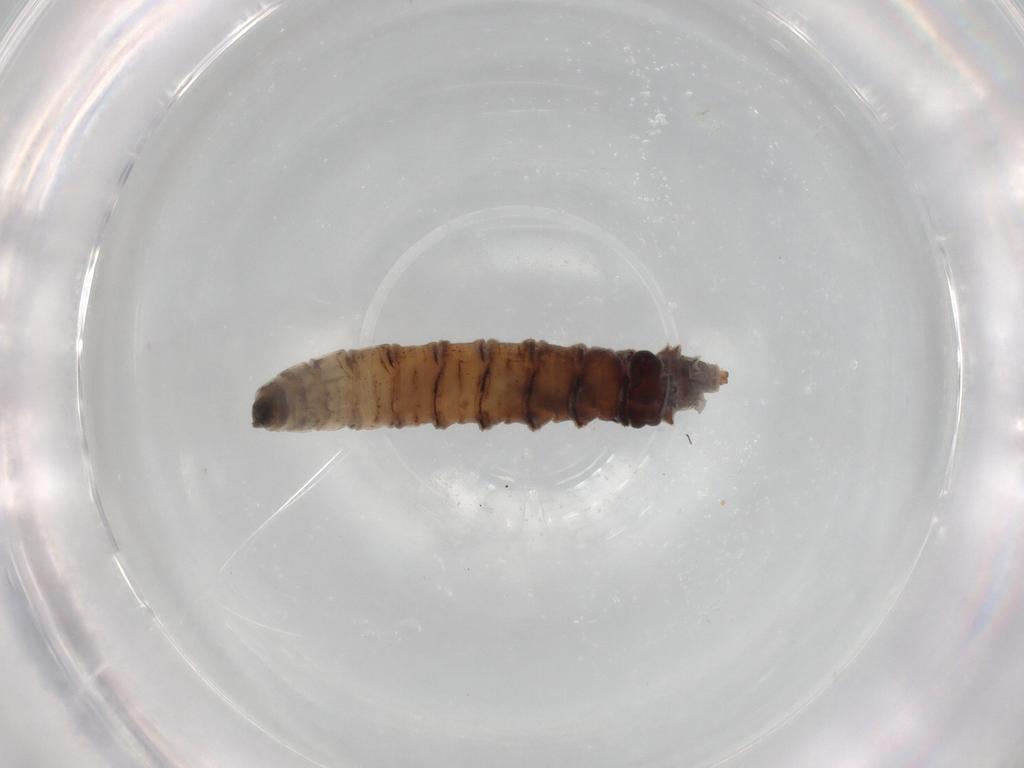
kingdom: Animalia
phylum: Arthropoda
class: Insecta
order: Diptera
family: Drosophilidae
